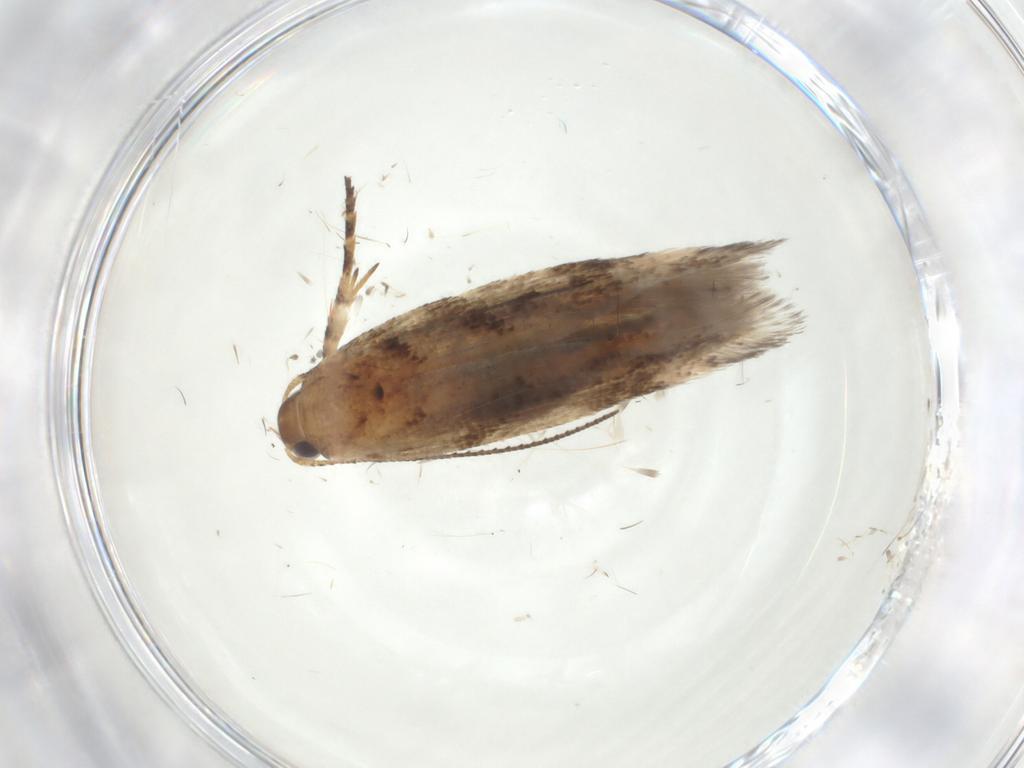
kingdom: Animalia
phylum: Arthropoda
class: Insecta
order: Lepidoptera
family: Gelechiidae
